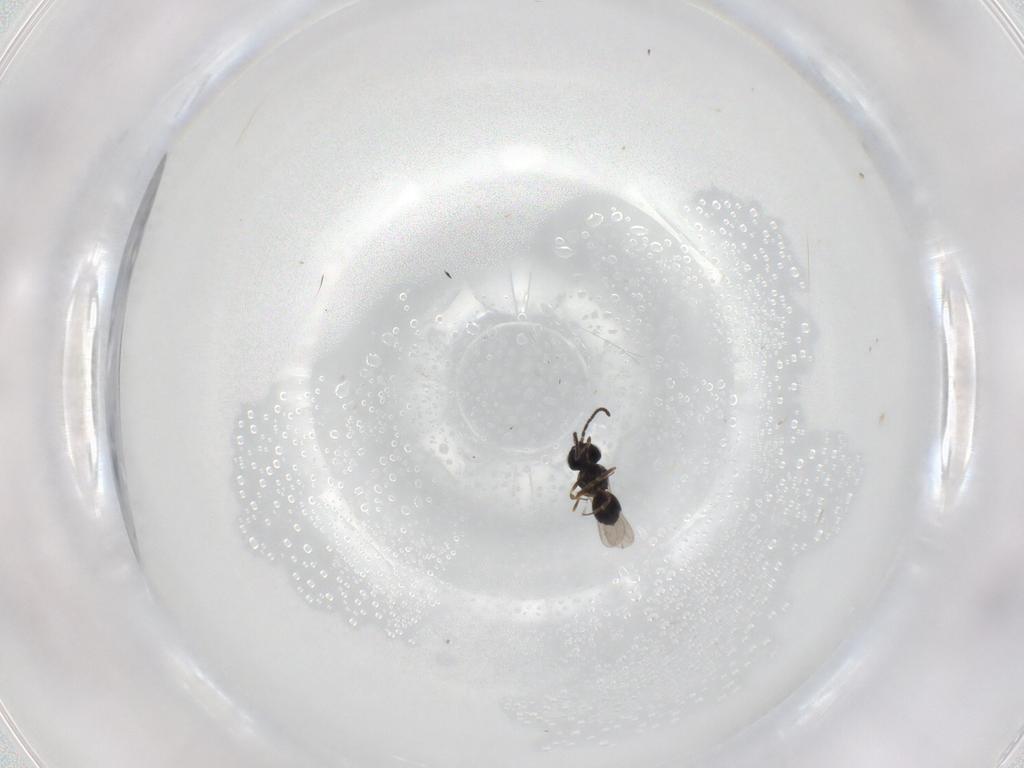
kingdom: Animalia
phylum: Arthropoda
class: Insecta
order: Hymenoptera
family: Scelionidae
